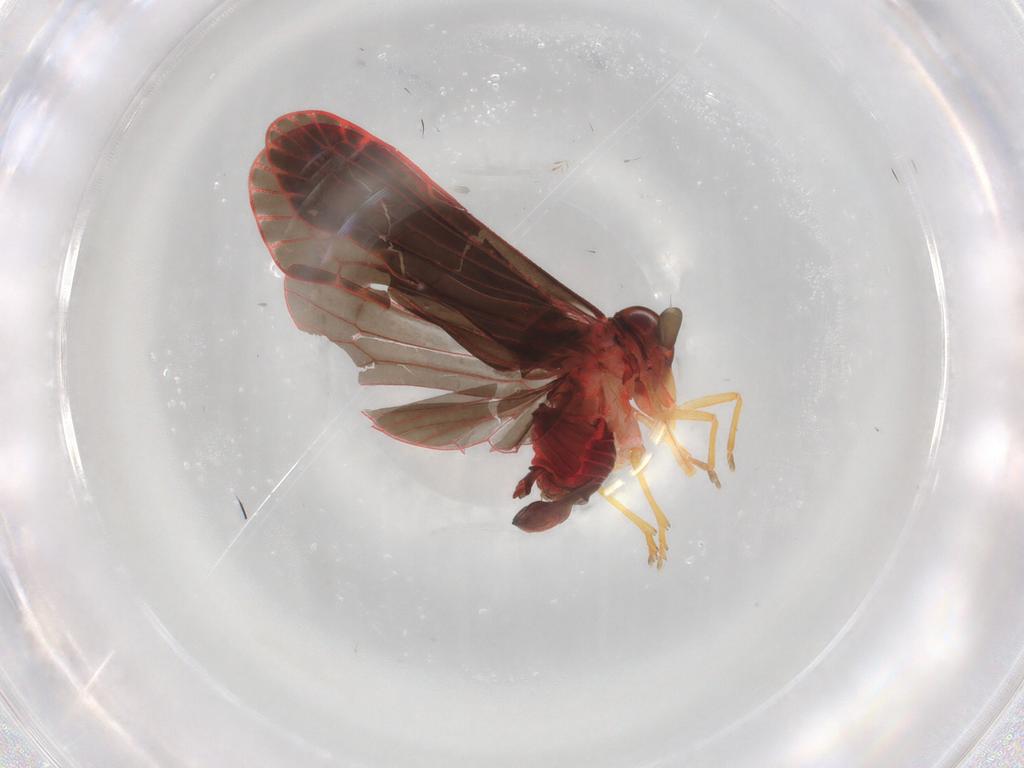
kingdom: Animalia
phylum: Arthropoda
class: Insecta
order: Hemiptera
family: Derbidae
